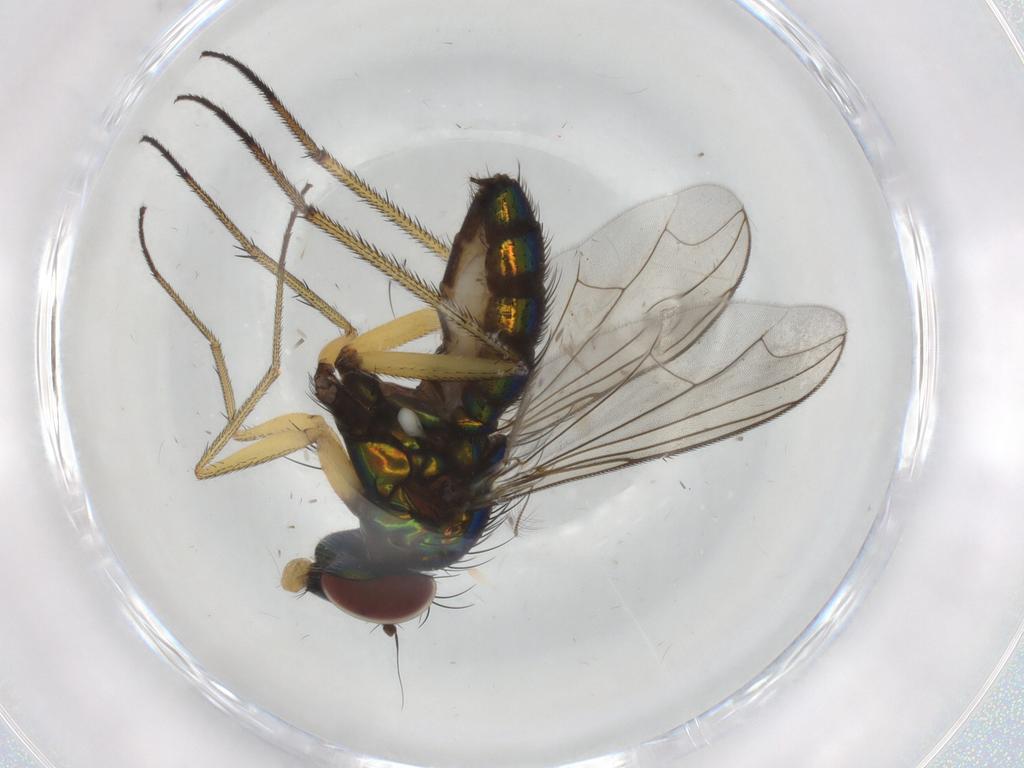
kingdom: Animalia
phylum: Arthropoda
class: Insecta
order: Diptera
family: Dolichopodidae
